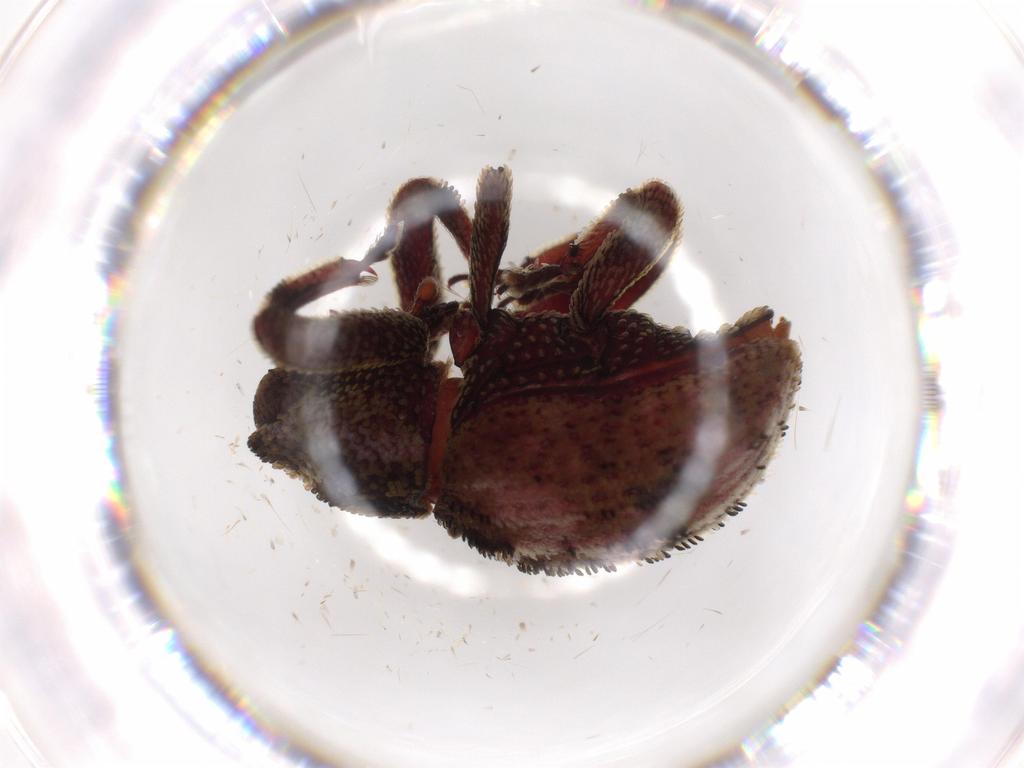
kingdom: Animalia
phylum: Arthropoda
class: Insecta
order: Coleoptera
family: Curculionidae
